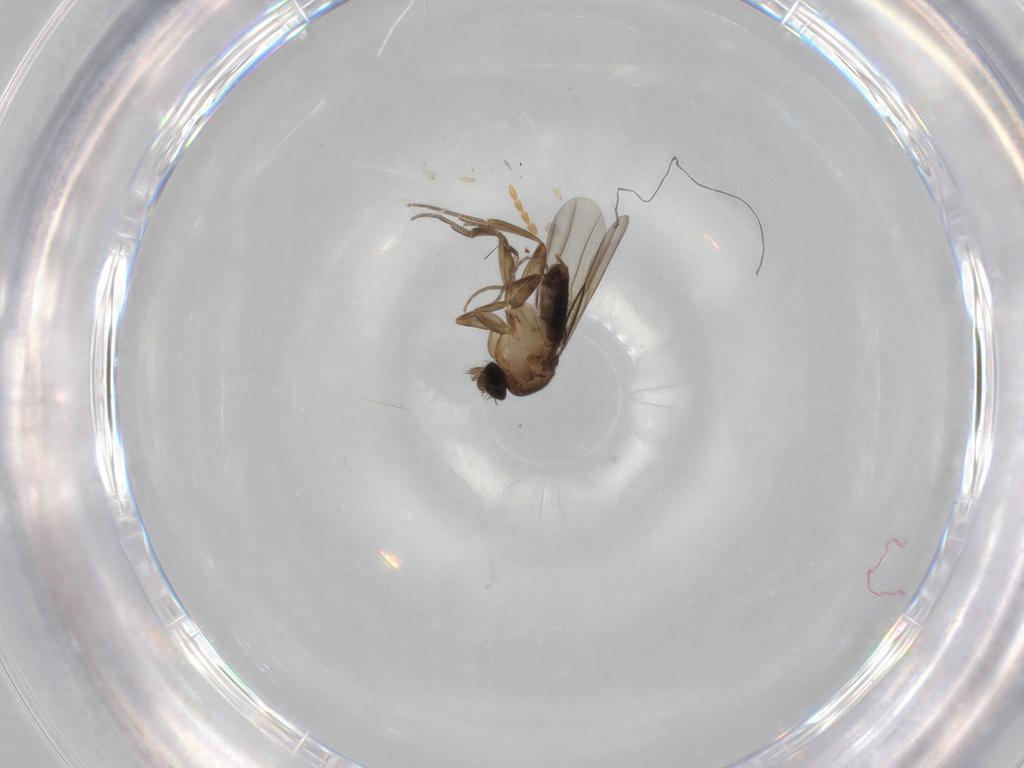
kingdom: Animalia
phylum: Arthropoda
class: Insecta
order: Diptera
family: Phoridae
